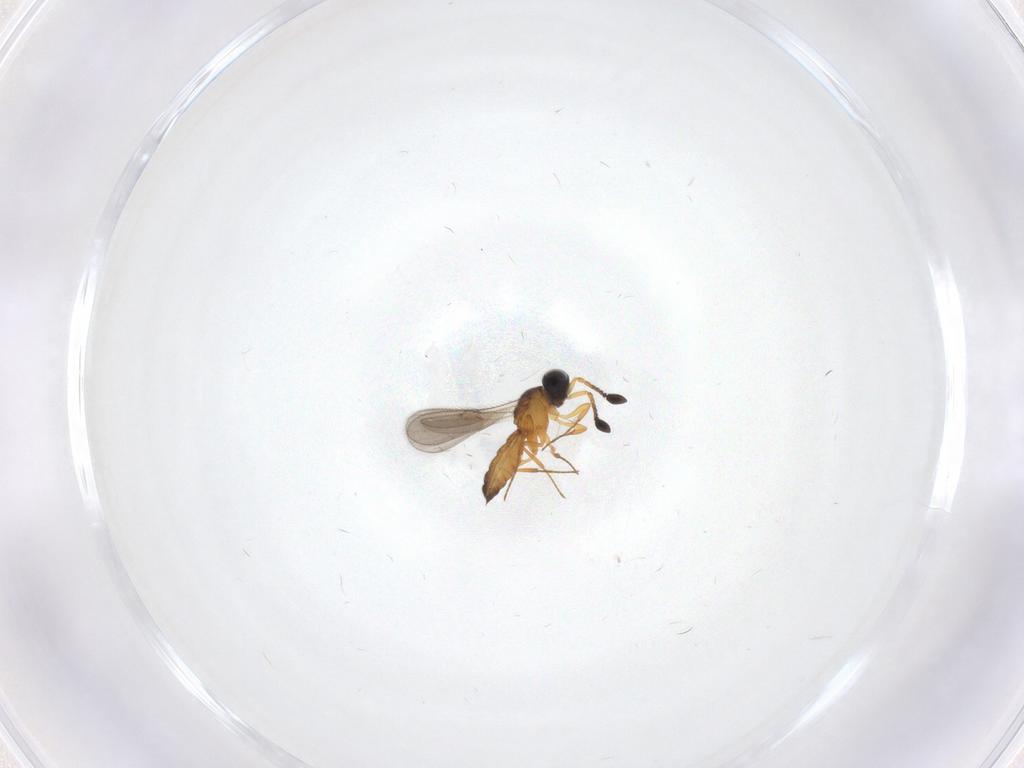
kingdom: Animalia
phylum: Arthropoda
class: Insecta
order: Hymenoptera
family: Scelionidae
